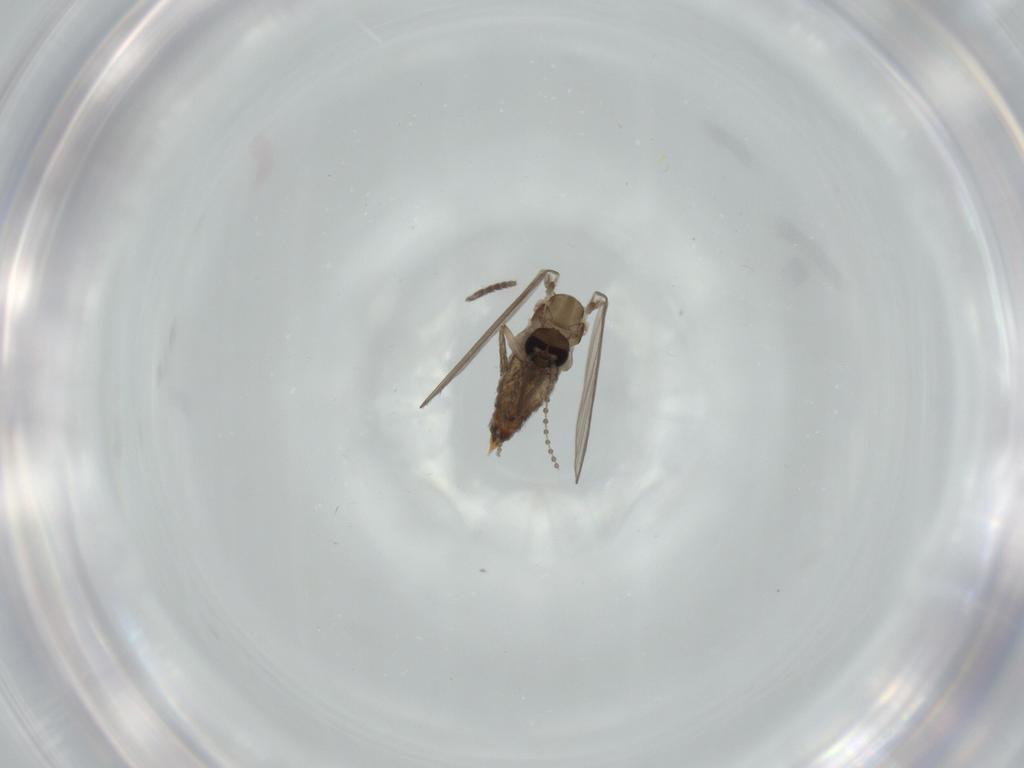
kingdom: Animalia
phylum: Arthropoda
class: Insecta
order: Diptera
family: Psychodidae
